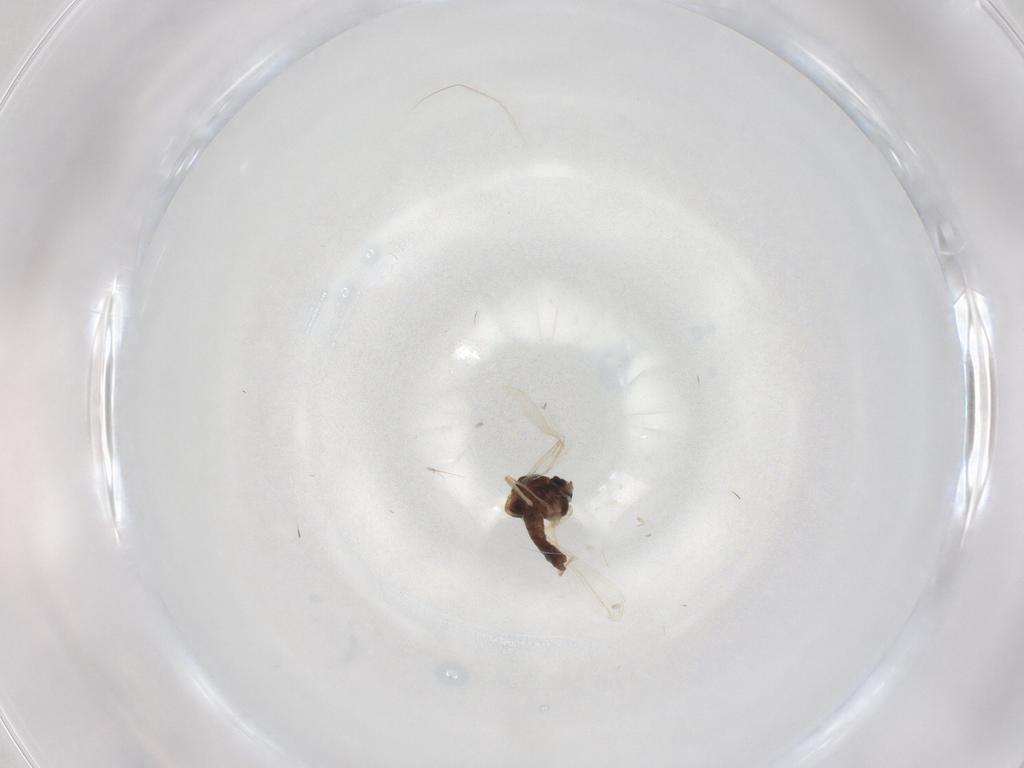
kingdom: Animalia
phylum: Arthropoda
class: Insecta
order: Diptera
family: Ceratopogonidae
